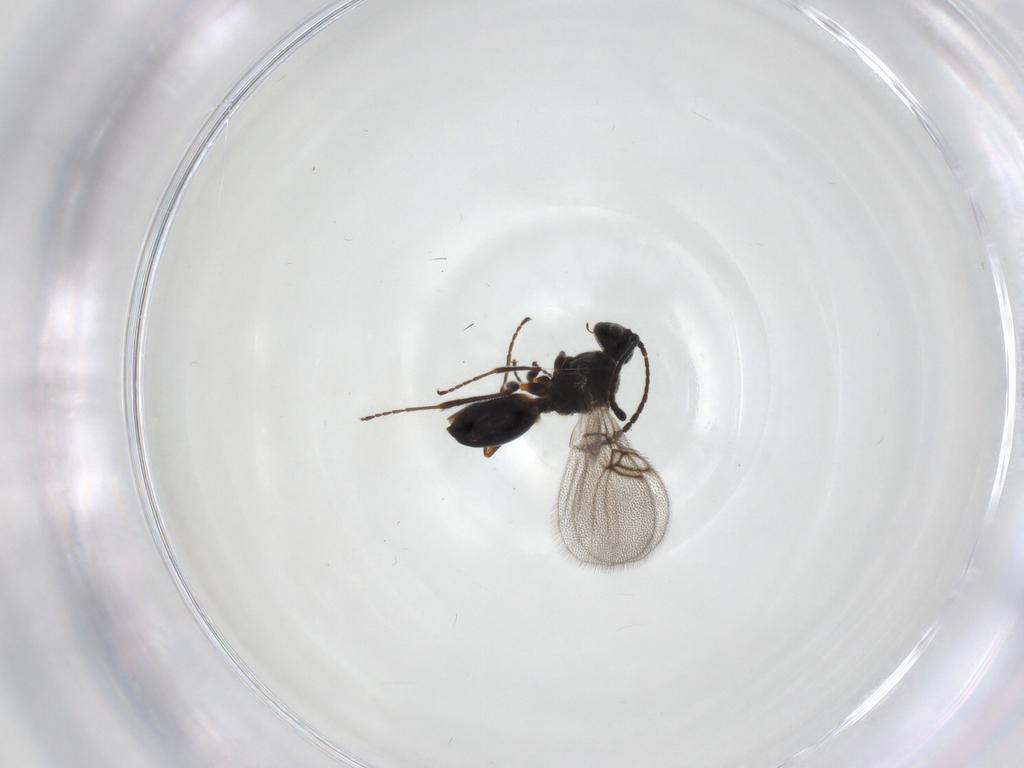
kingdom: Animalia
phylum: Arthropoda
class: Insecta
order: Hymenoptera
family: Figitidae
